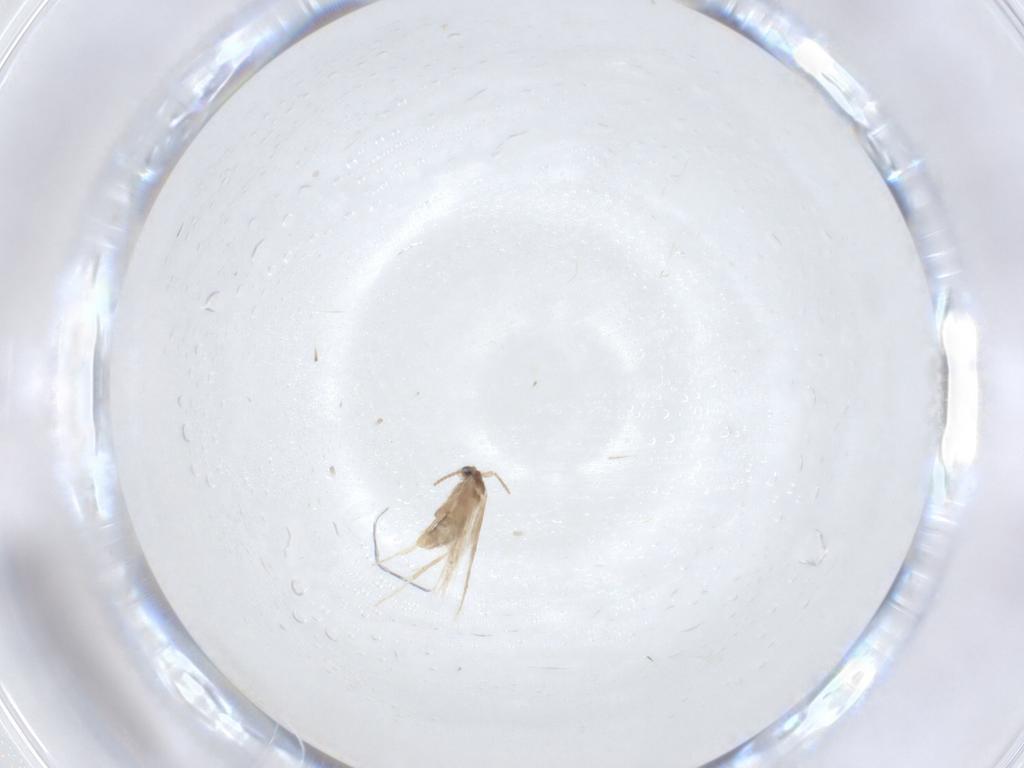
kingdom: Animalia
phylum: Arthropoda
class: Insecta
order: Lepidoptera
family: Nepticulidae
